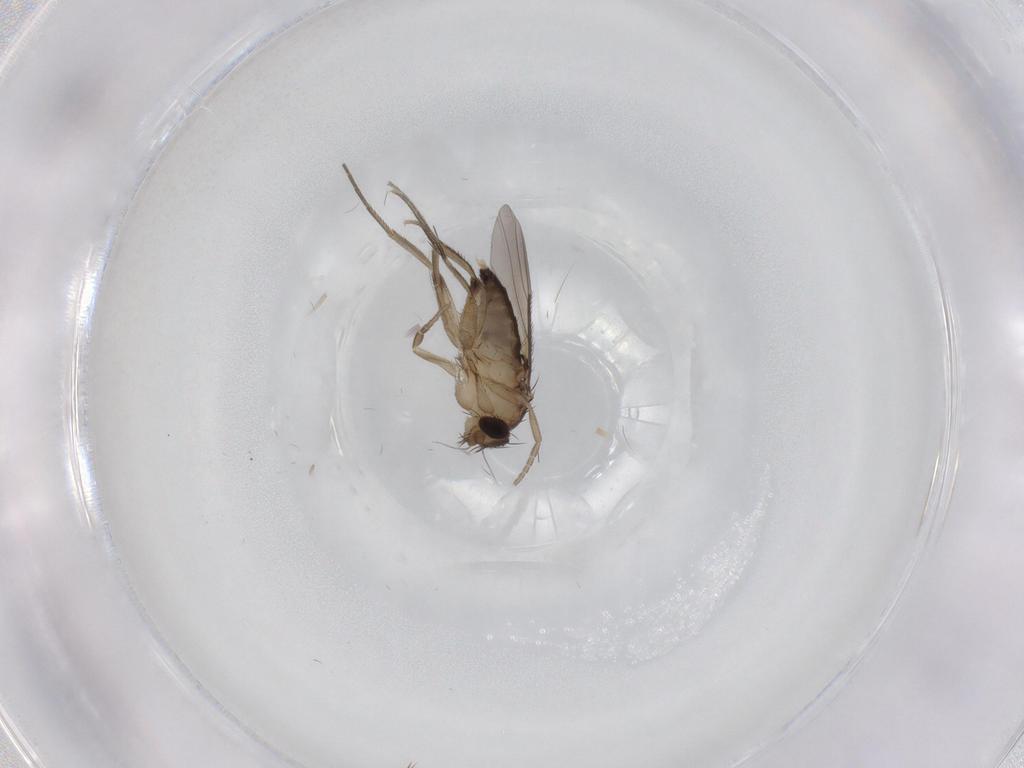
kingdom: Animalia
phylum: Arthropoda
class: Insecta
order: Diptera
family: Phoridae
